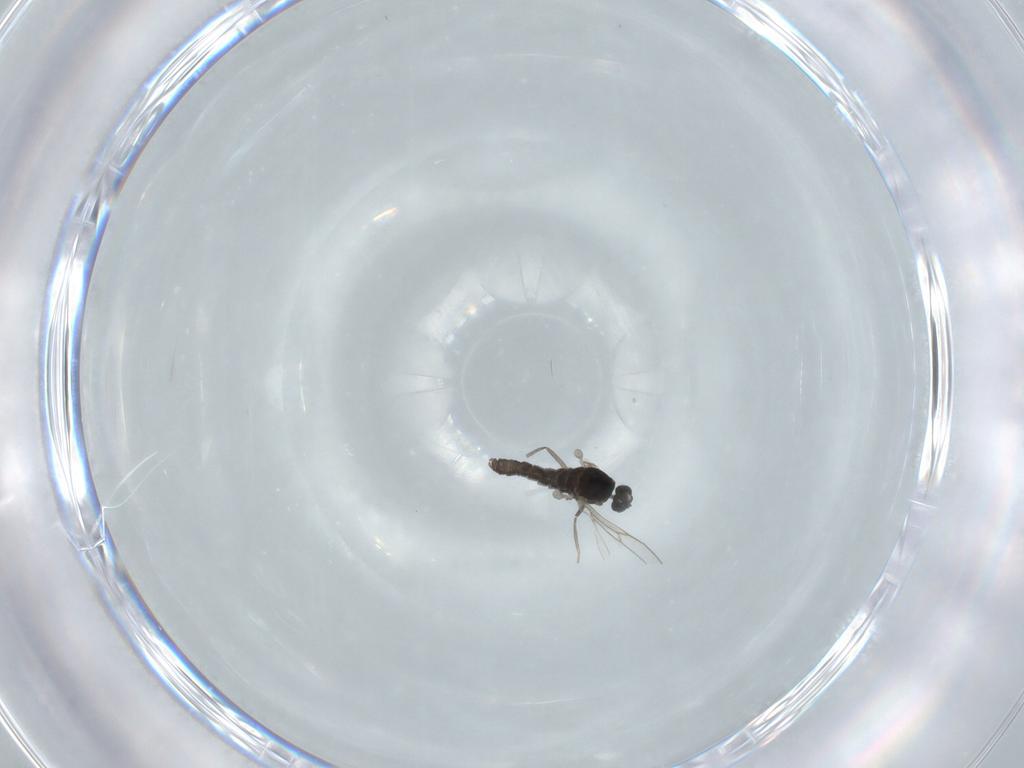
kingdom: Animalia
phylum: Arthropoda
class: Insecta
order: Diptera
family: Cecidomyiidae
